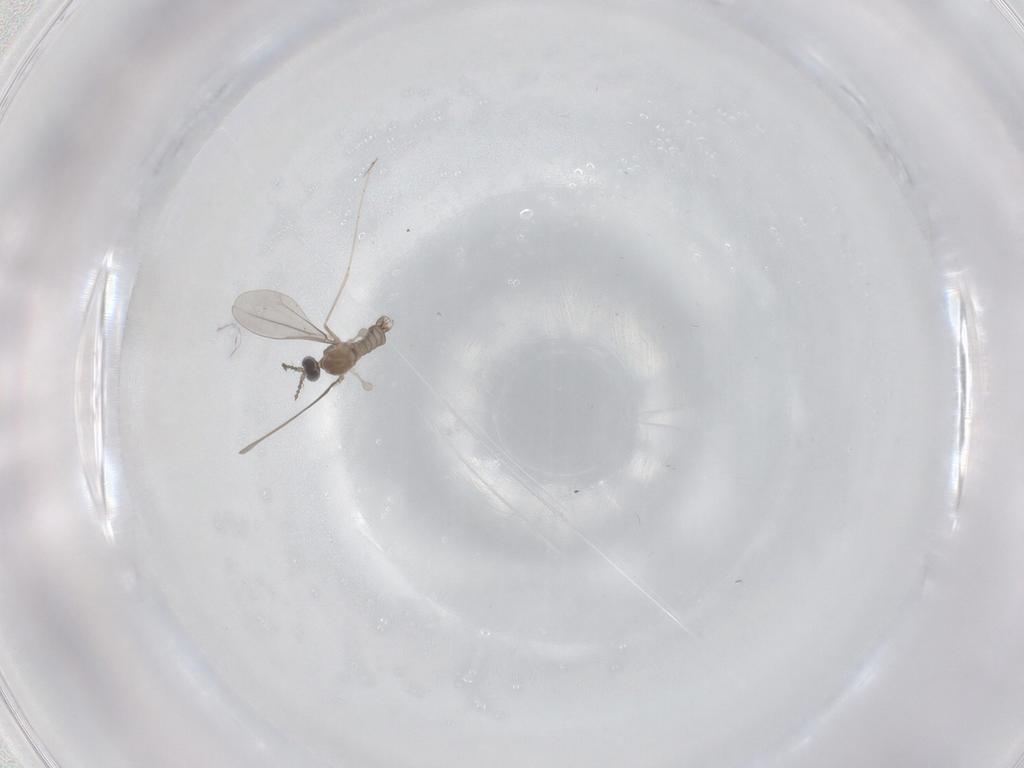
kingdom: Animalia
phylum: Arthropoda
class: Insecta
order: Diptera
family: Cecidomyiidae
